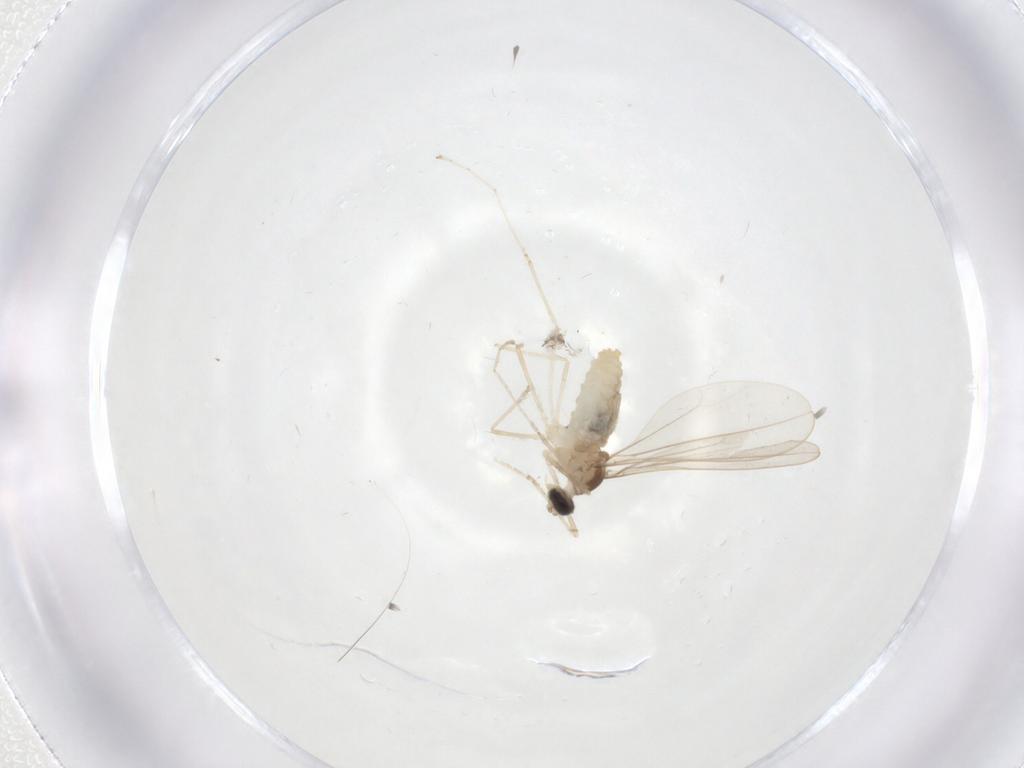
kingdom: Animalia
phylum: Arthropoda
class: Insecta
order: Diptera
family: Cecidomyiidae
